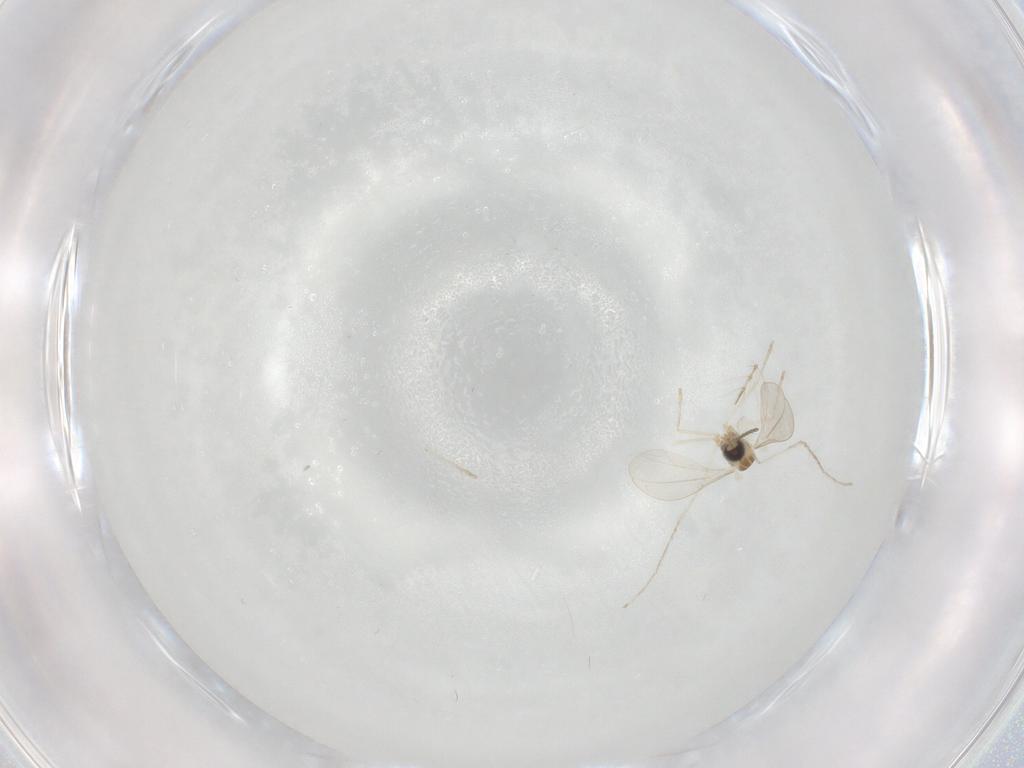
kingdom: Animalia
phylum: Arthropoda
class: Insecta
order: Diptera
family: Cecidomyiidae
